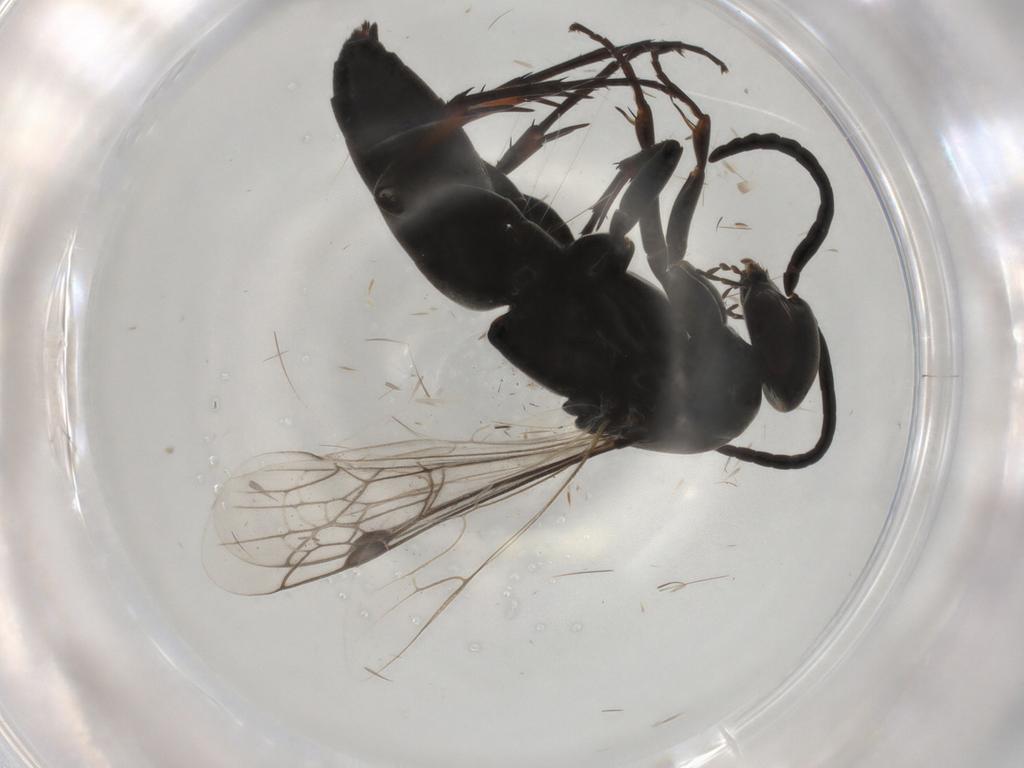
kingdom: Animalia
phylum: Arthropoda
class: Insecta
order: Hymenoptera
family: Pompilidae
